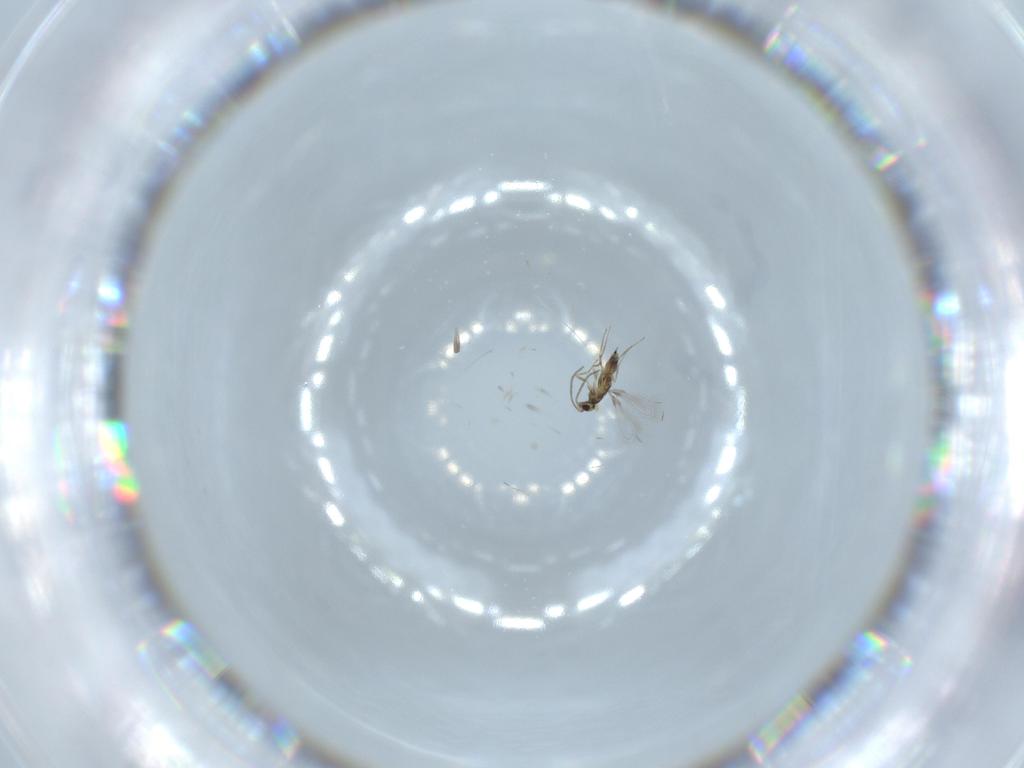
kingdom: Animalia
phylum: Arthropoda
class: Insecta
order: Hymenoptera
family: Mymaridae
